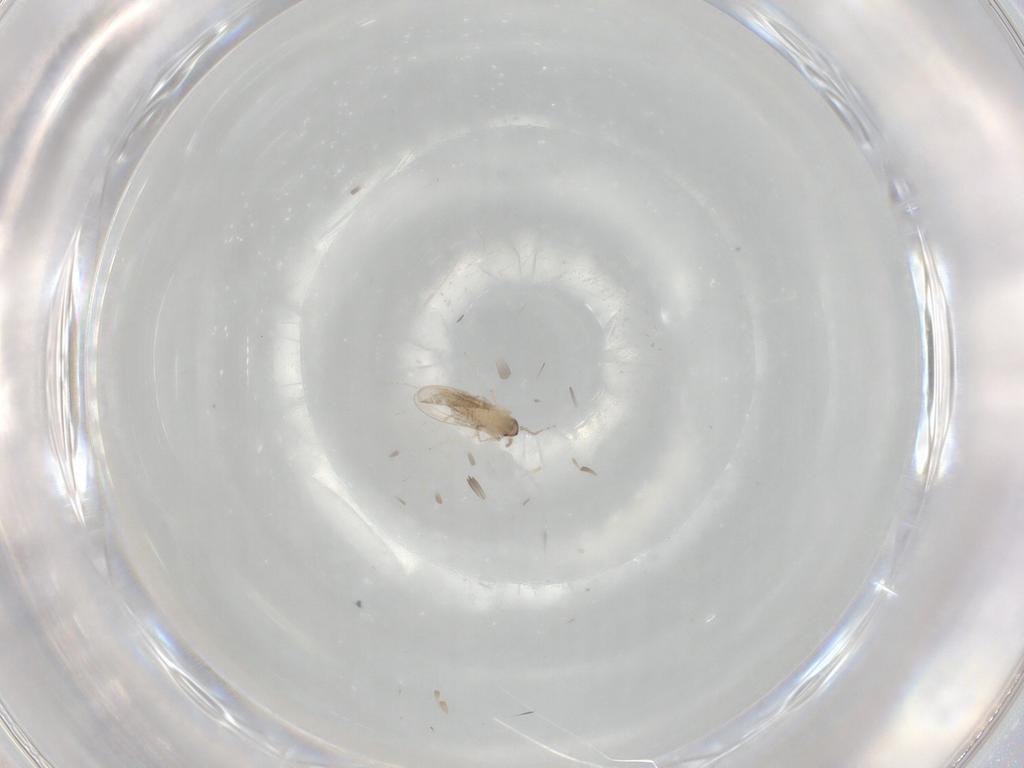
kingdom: Animalia
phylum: Arthropoda
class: Insecta
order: Diptera
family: Cecidomyiidae
